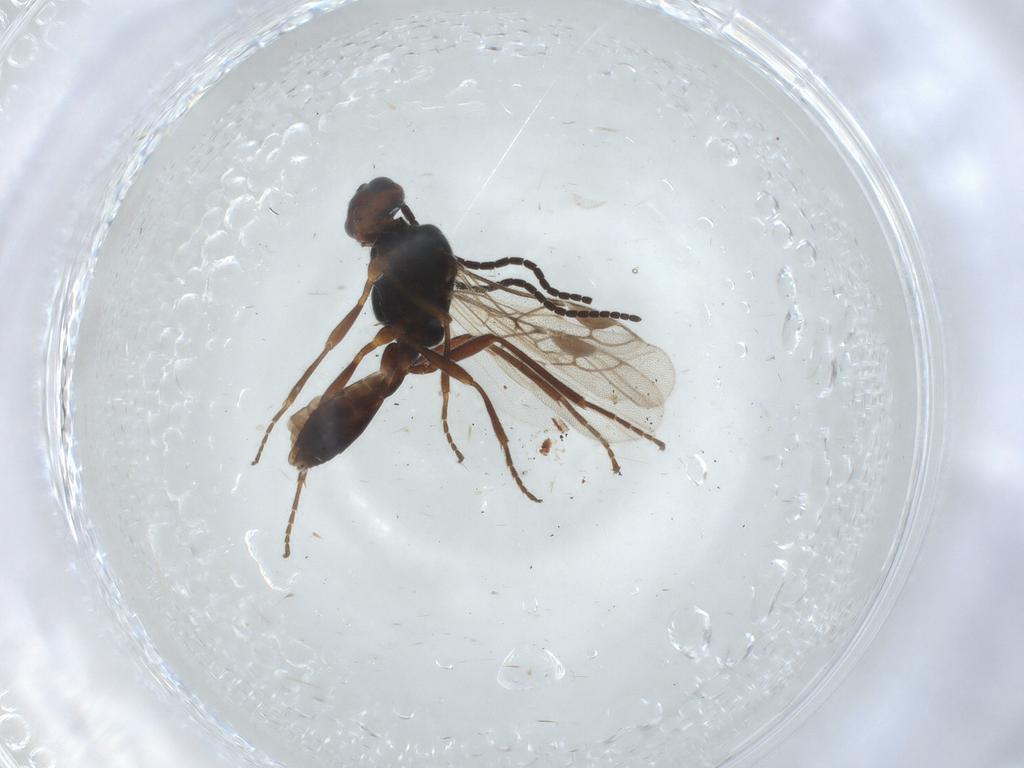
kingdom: Animalia
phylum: Arthropoda
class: Insecta
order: Hymenoptera
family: Braconidae
